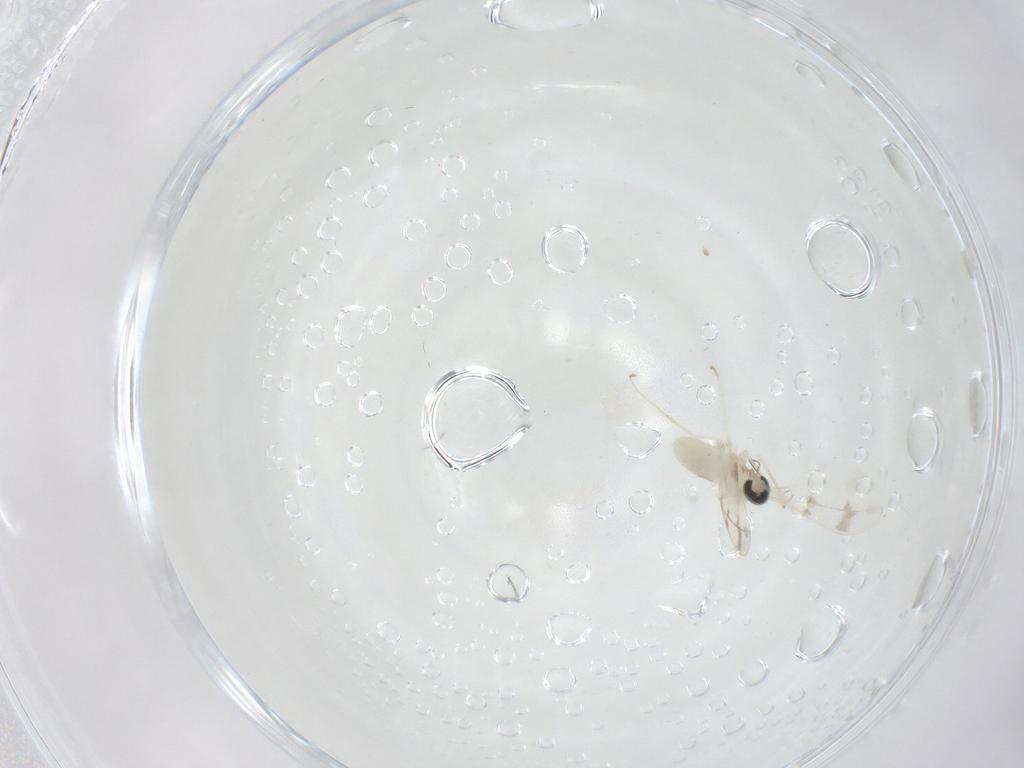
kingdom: Animalia
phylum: Arthropoda
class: Insecta
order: Diptera
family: Cecidomyiidae
